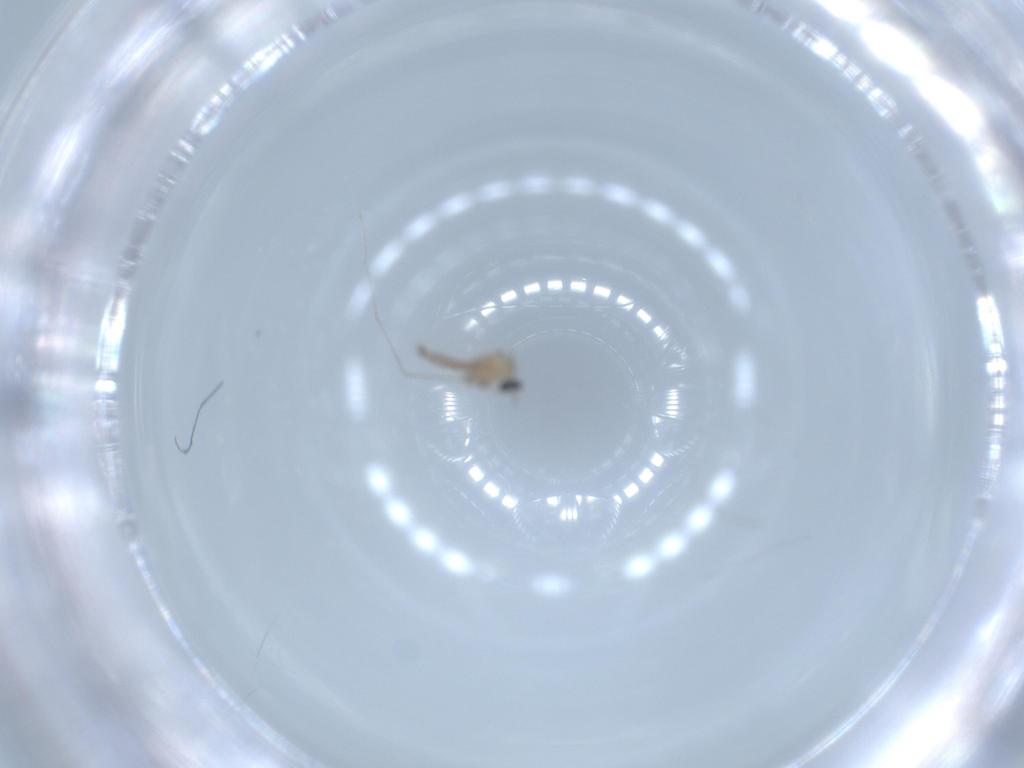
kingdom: Animalia
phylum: Arthropoda
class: Insecta
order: Diptera
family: Cecidomyiidae
